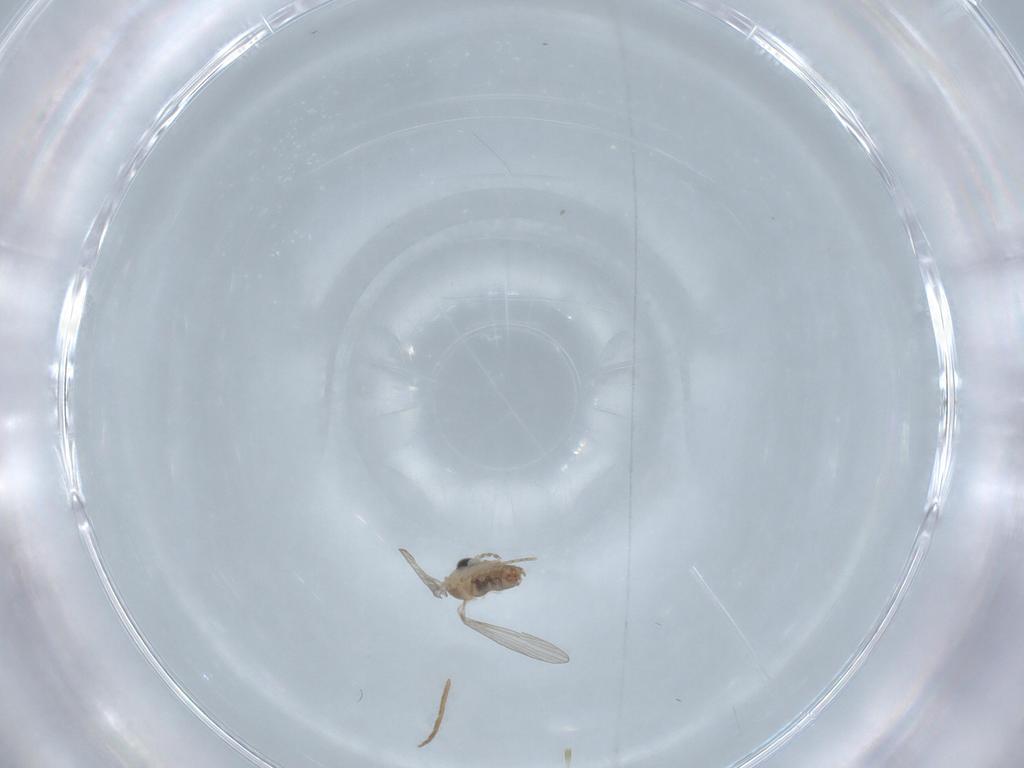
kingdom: Animalia
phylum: Arthropoda
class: Insecta
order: Diptera
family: Chironomidae
